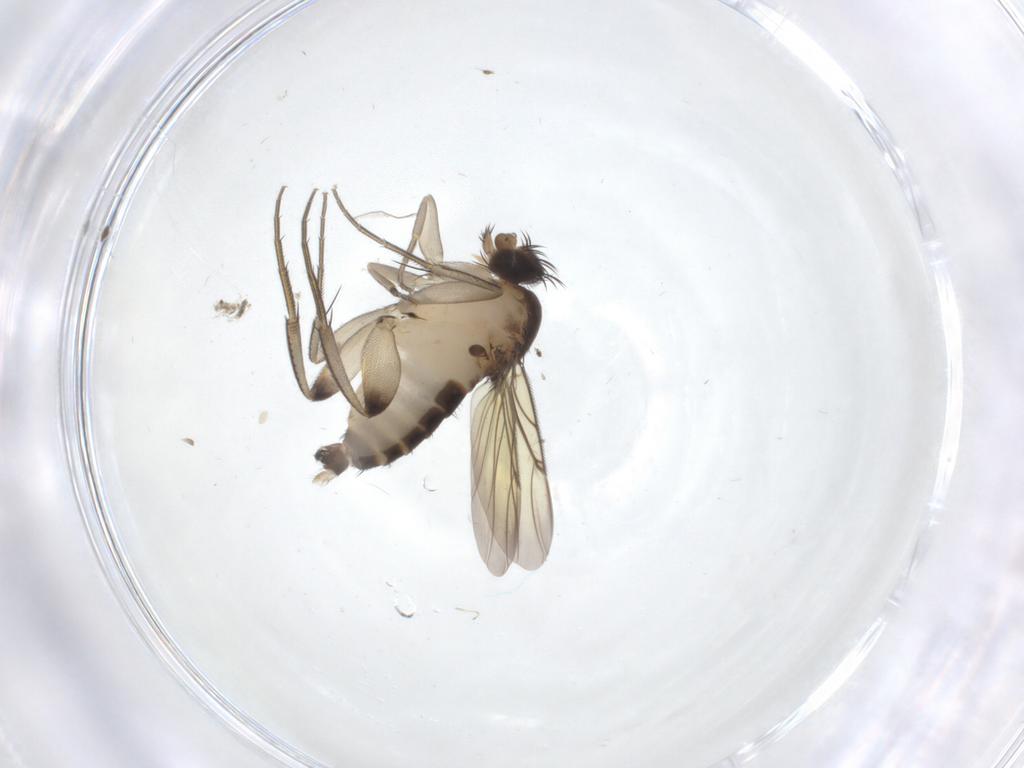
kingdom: Animalia
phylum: Arthropoda
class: Insecta
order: Diptera
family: Phoridae
